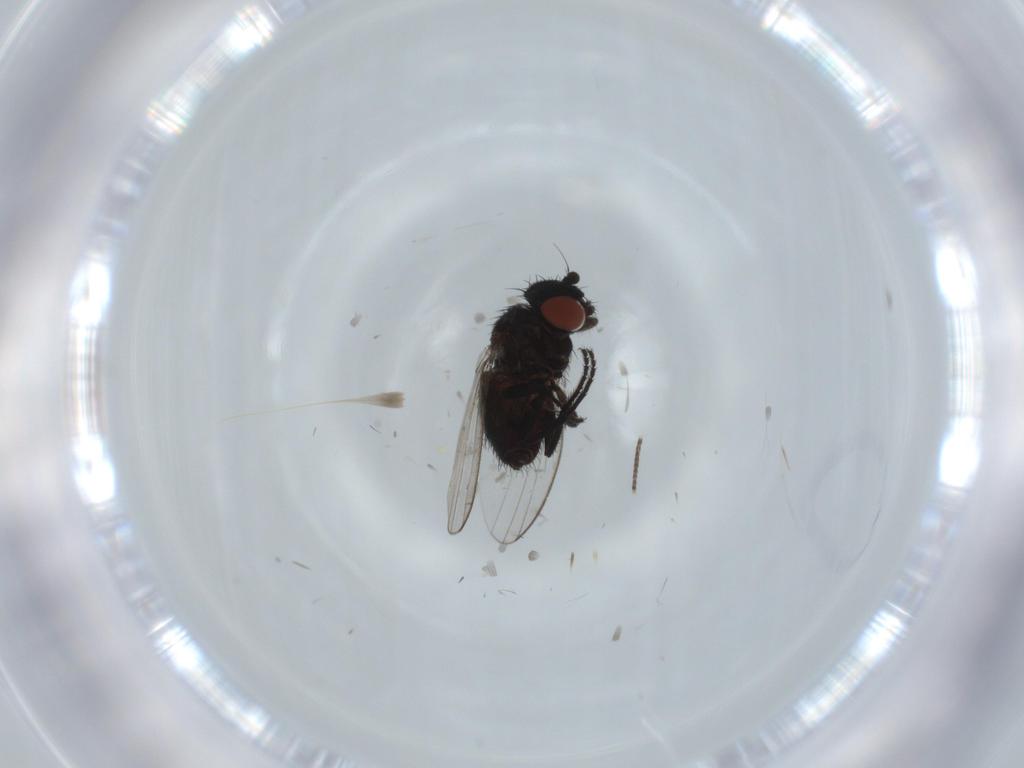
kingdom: Animalia
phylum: Arthropoda
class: Insecta
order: Diptera
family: Milichiidae
